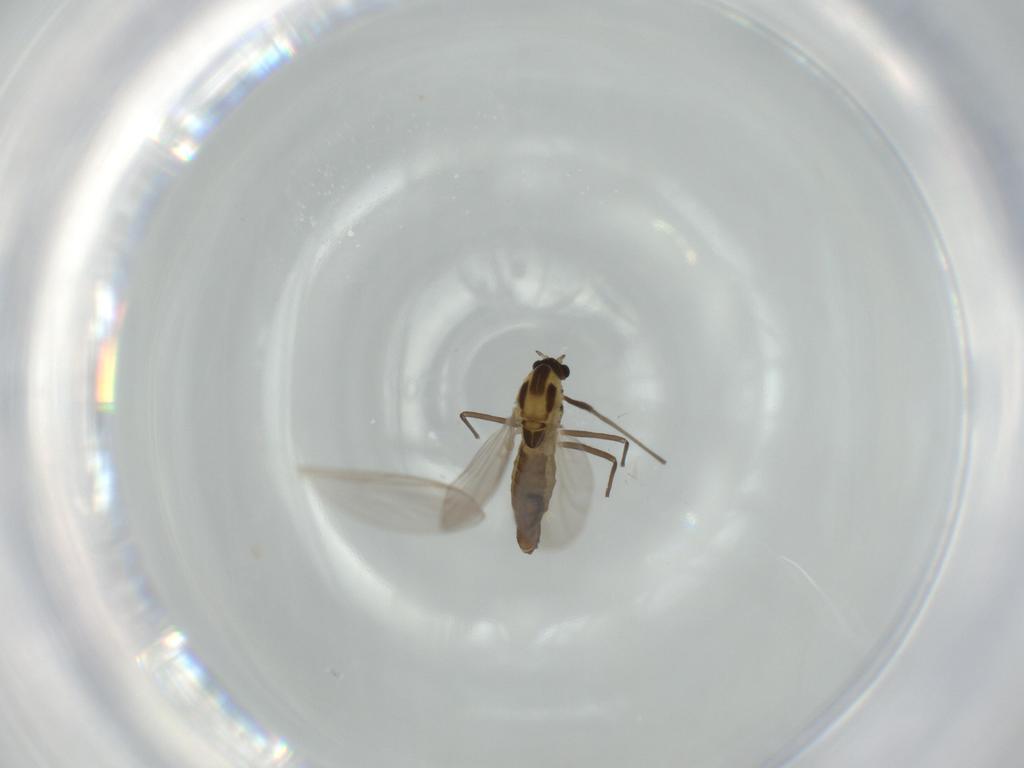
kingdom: Animalia
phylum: Arthropoda
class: Insecta
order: Diptera
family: Chironomidae
